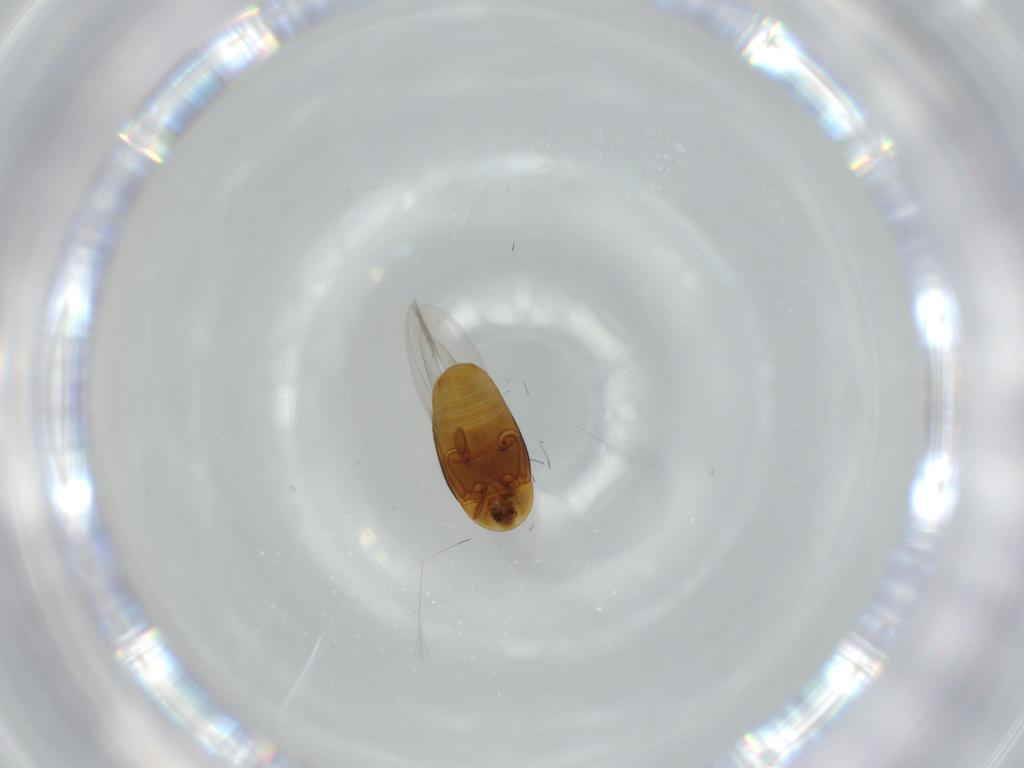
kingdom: Animalia
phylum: Arthropoda
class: Insecta
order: Coleoptera
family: Corylophidae
